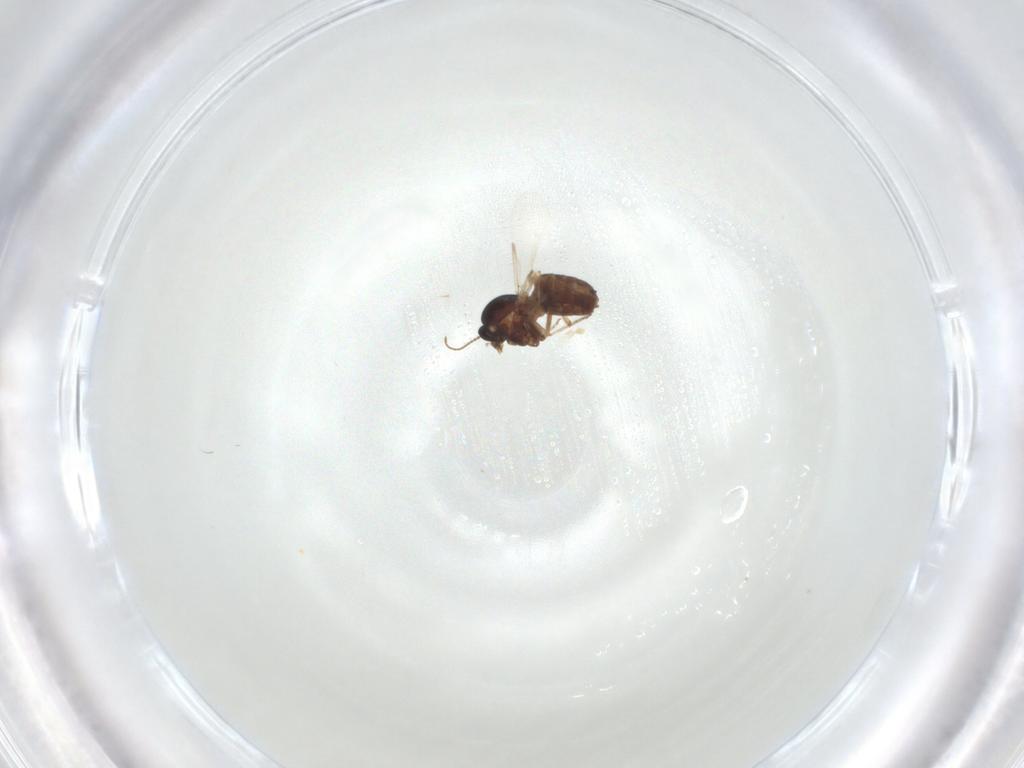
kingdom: Animalia
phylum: Arthropoda
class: Insecta
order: Diptera
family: Ceratopogonidae
